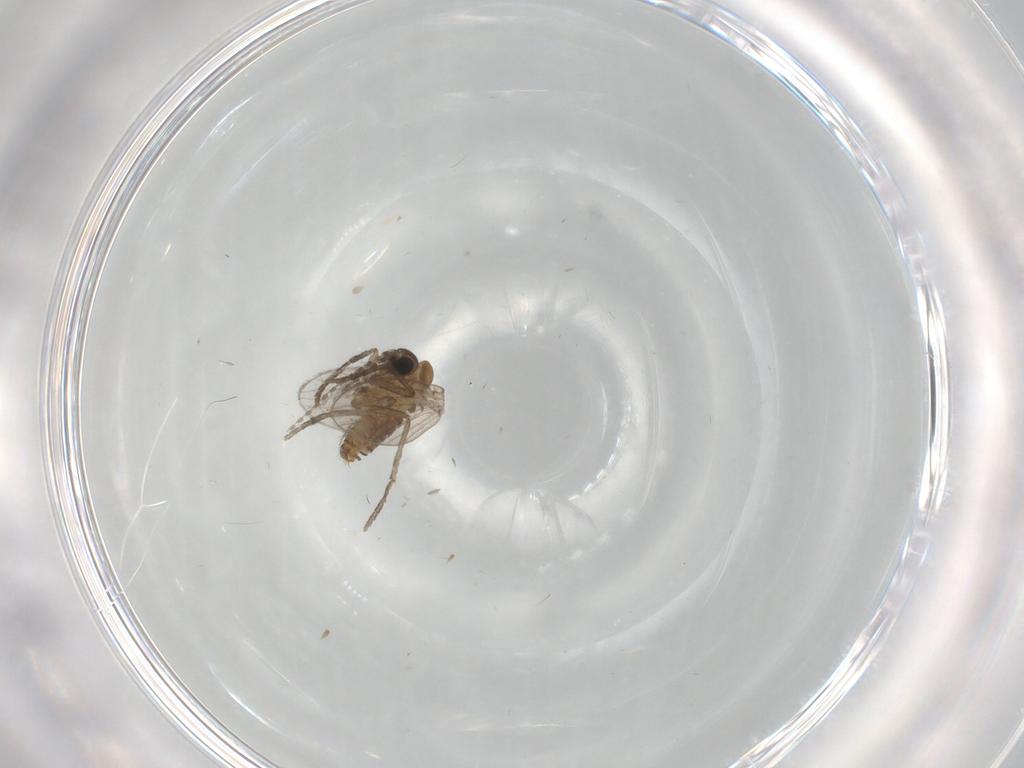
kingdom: Animalia
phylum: Arthropoda
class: Insecta
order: Diptera
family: Psychodidae
